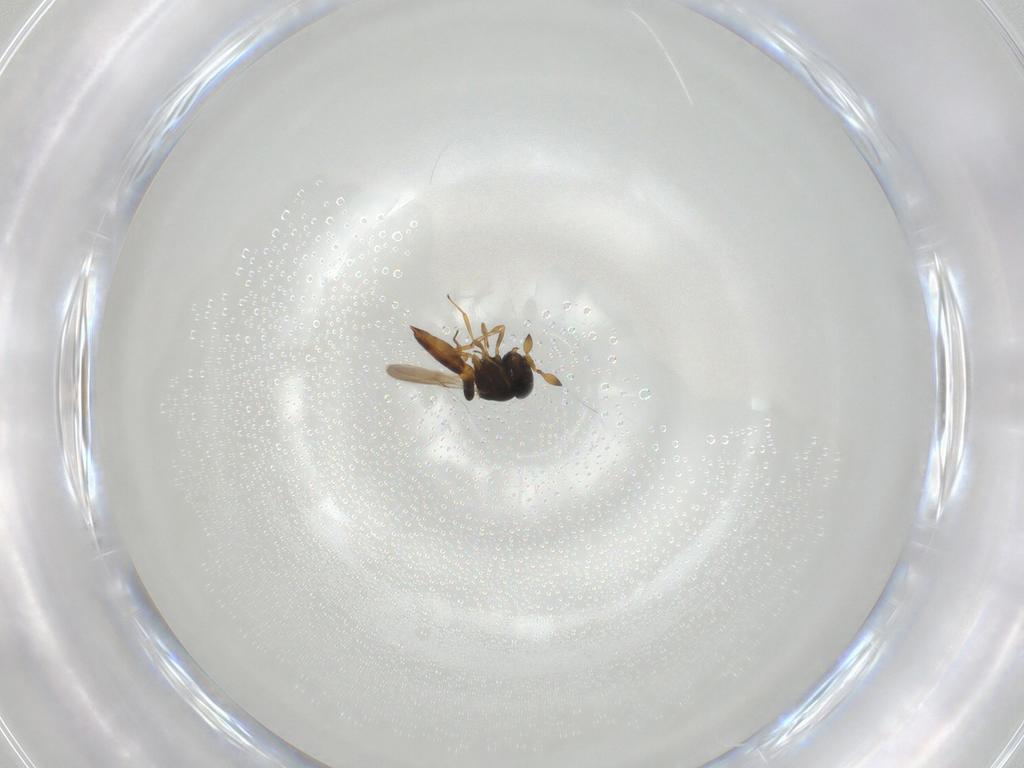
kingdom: Animalia
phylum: Arthropoda
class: Insecta
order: Hymenoptera
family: Scelionidae
